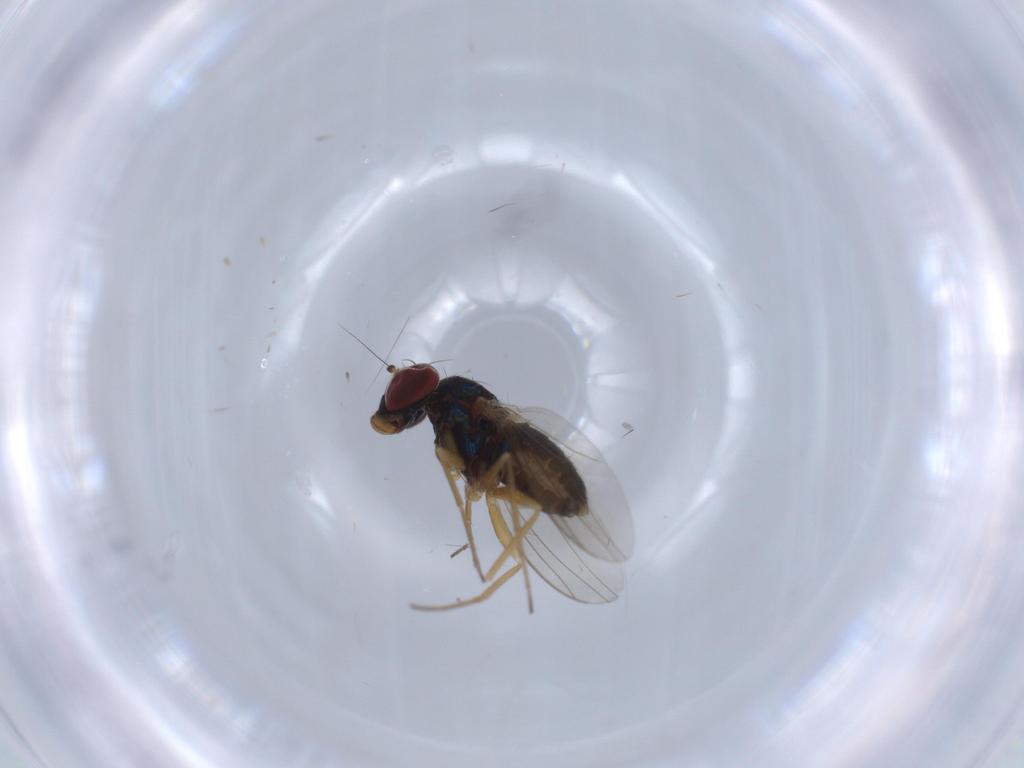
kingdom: Animalia
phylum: Arthropoda
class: Insecta
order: Diptera
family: Dolichopodidae
